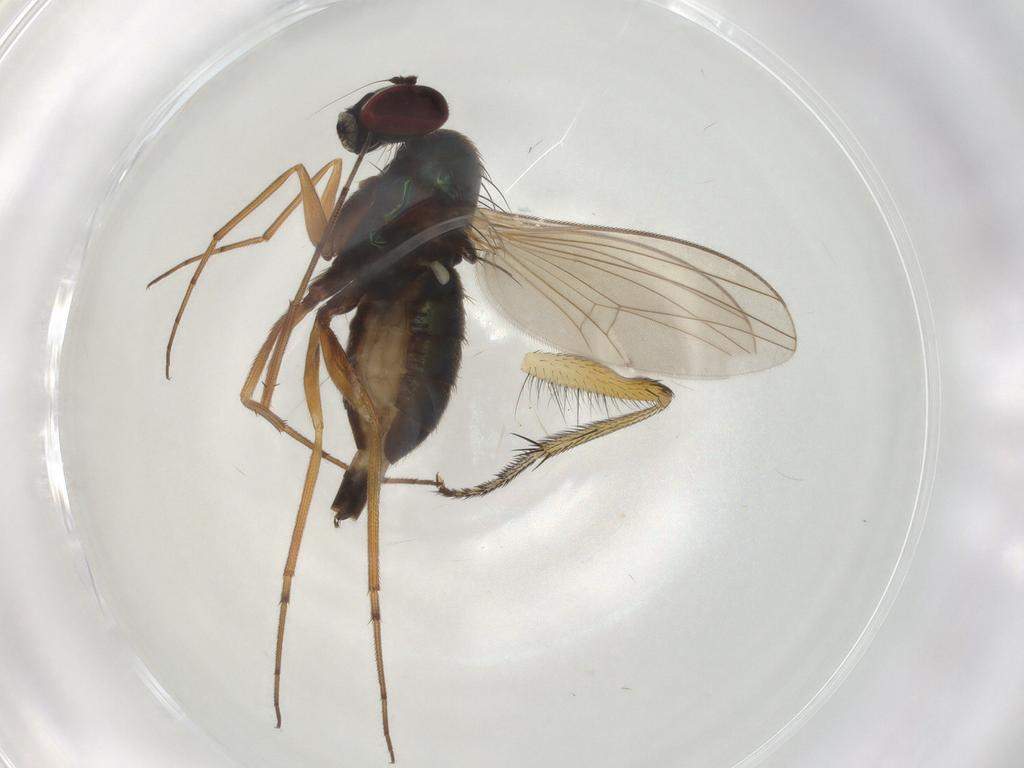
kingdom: Animalia
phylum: Arthropoda
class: Insecta
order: Diptera
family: Dolichopodidae
